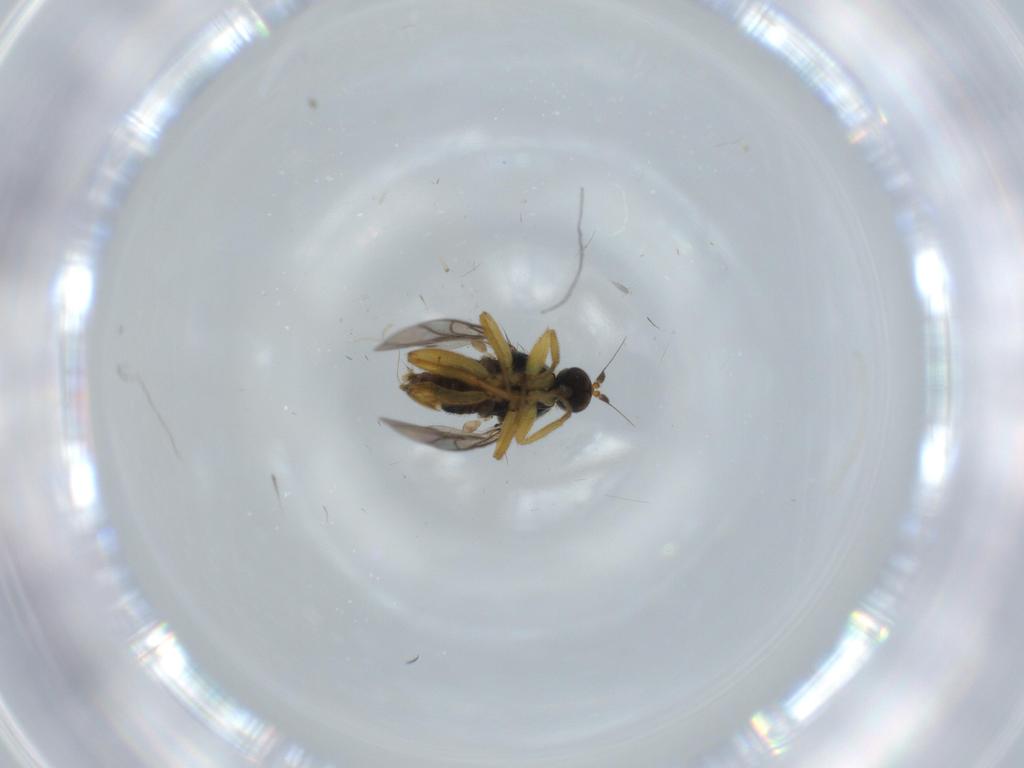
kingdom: Animalia
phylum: Arthropoda
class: Insecta
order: Diptera
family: Hybotidae
